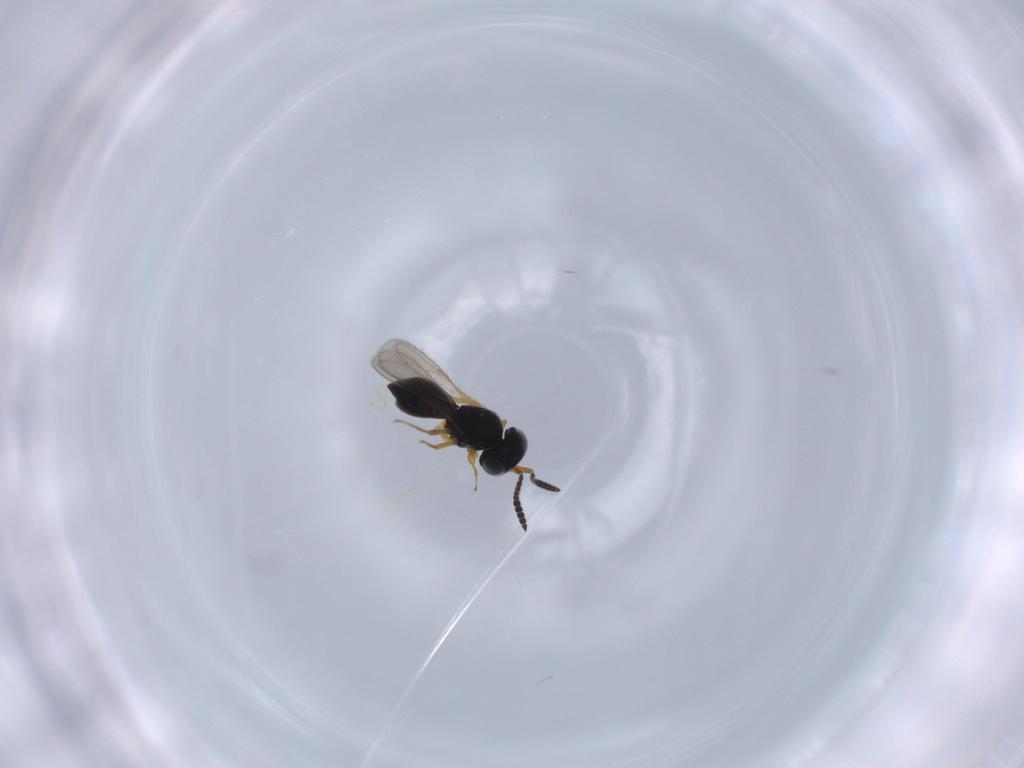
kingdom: Animalia
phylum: Arthropoda
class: Insecta
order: Hymenoptera
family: Scelionidae
